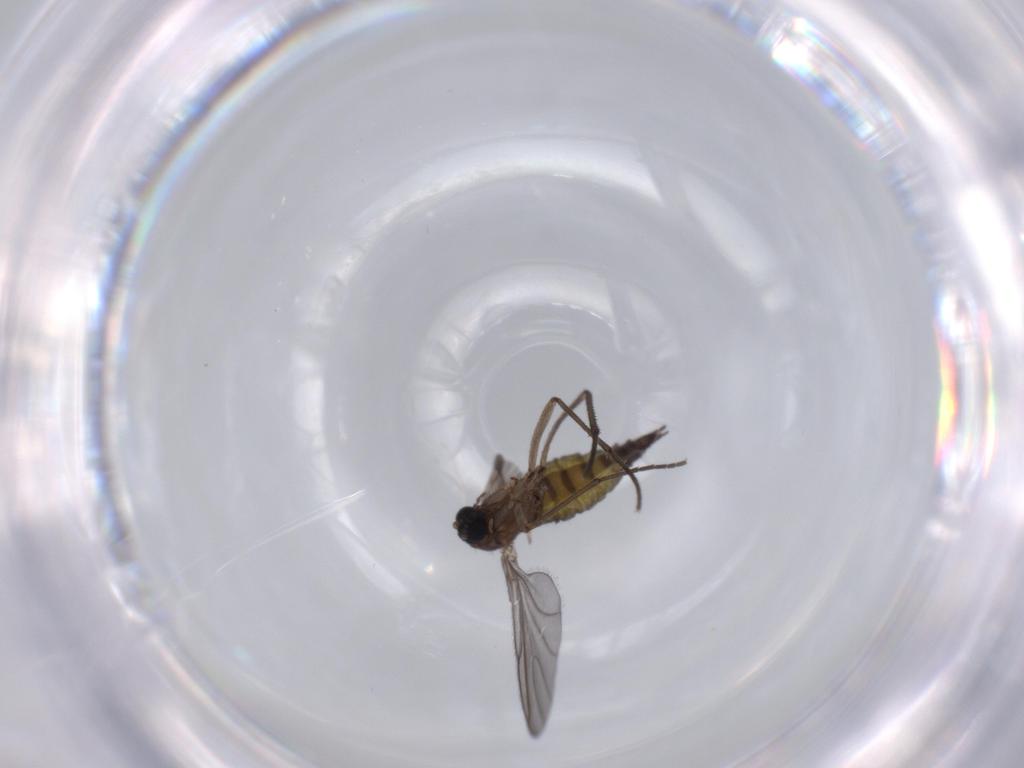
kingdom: Animalia
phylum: Arthropoda
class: Insecta
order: Diptera
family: Sciaridae
